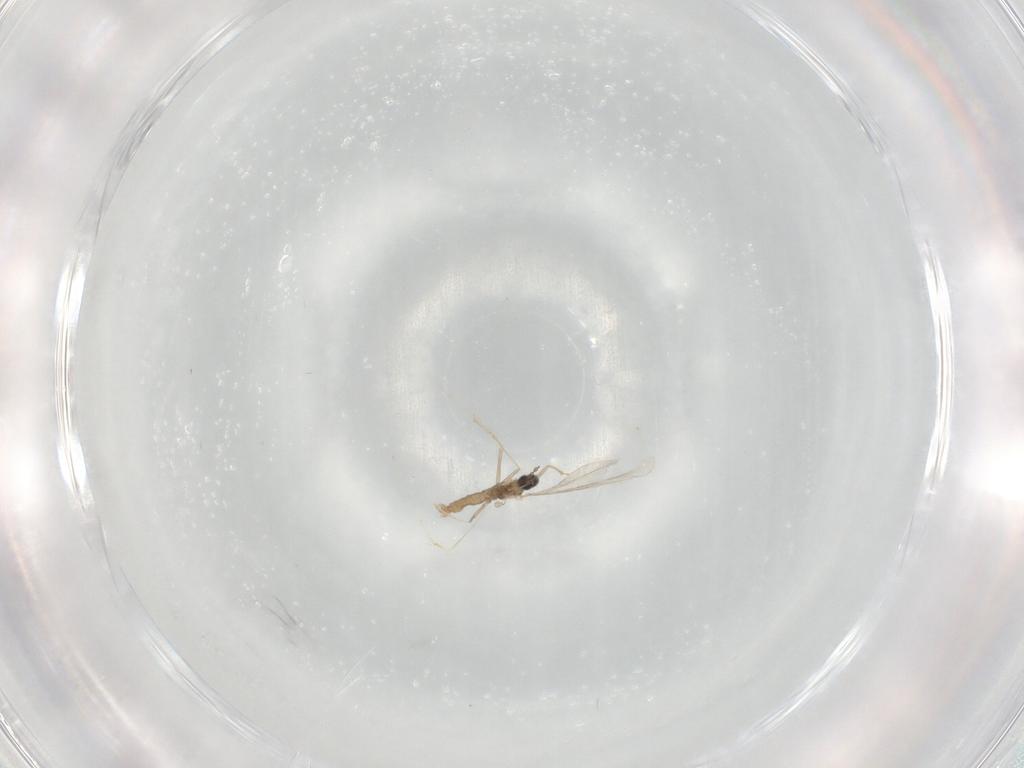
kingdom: Animalia
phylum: Arthropoda
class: Insecta
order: Diptera
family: Cecidomyiidae
